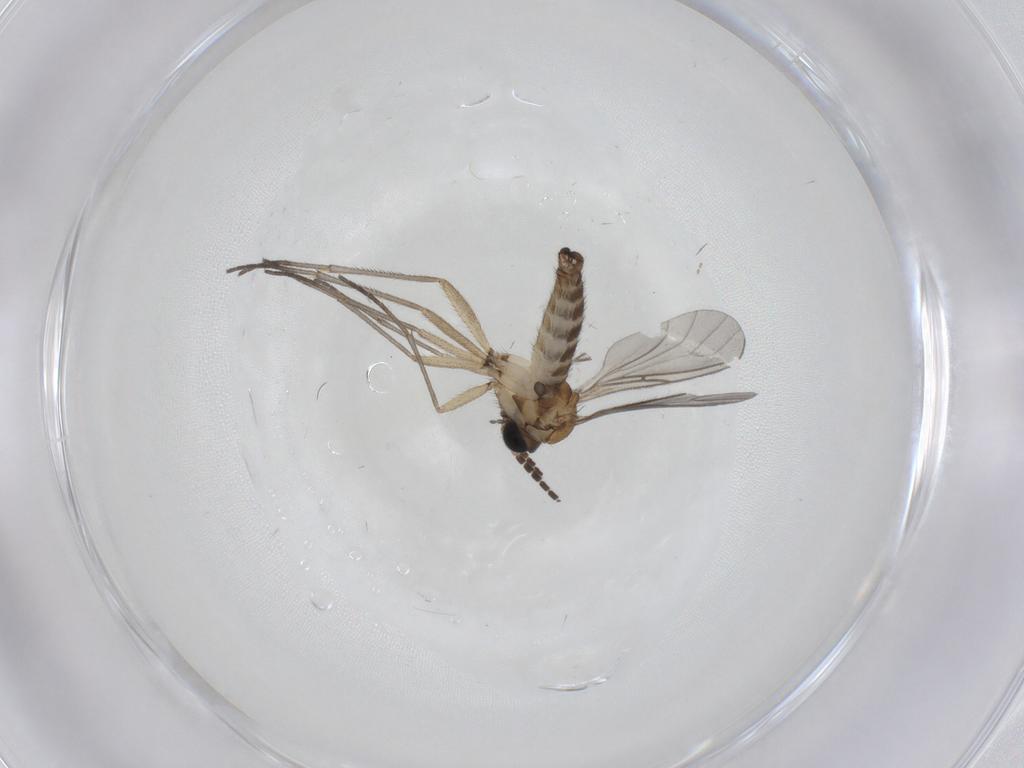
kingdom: Animalia
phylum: Arthropoda
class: Insecta
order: Diptera
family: Sciaridae
